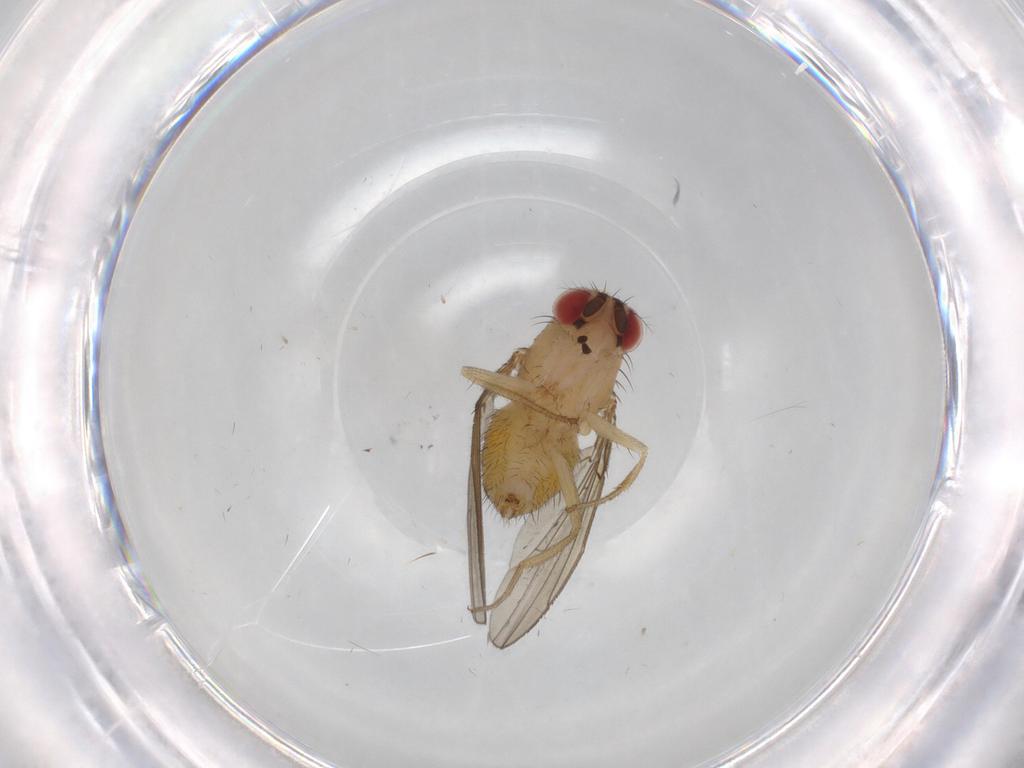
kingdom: Animalia
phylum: Arthropoda
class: Insecta
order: Diptera
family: Drosophilidae
